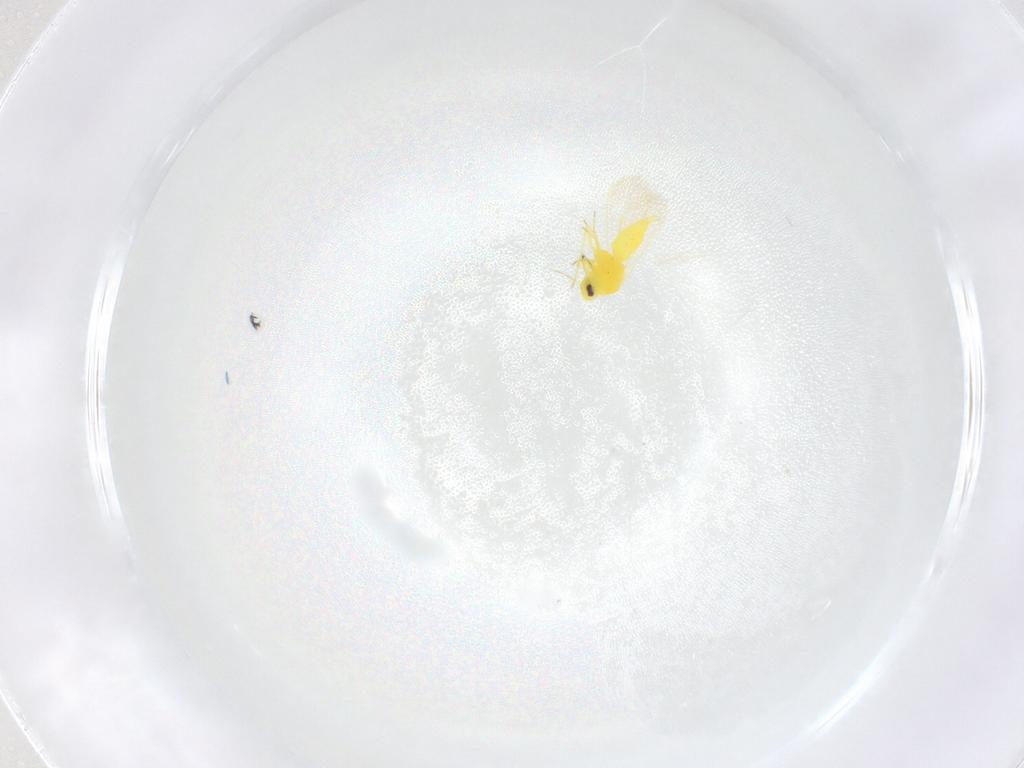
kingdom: Animalia
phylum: Arthropoda
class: Insecta
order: Hemiptera
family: Aleyrodidae
